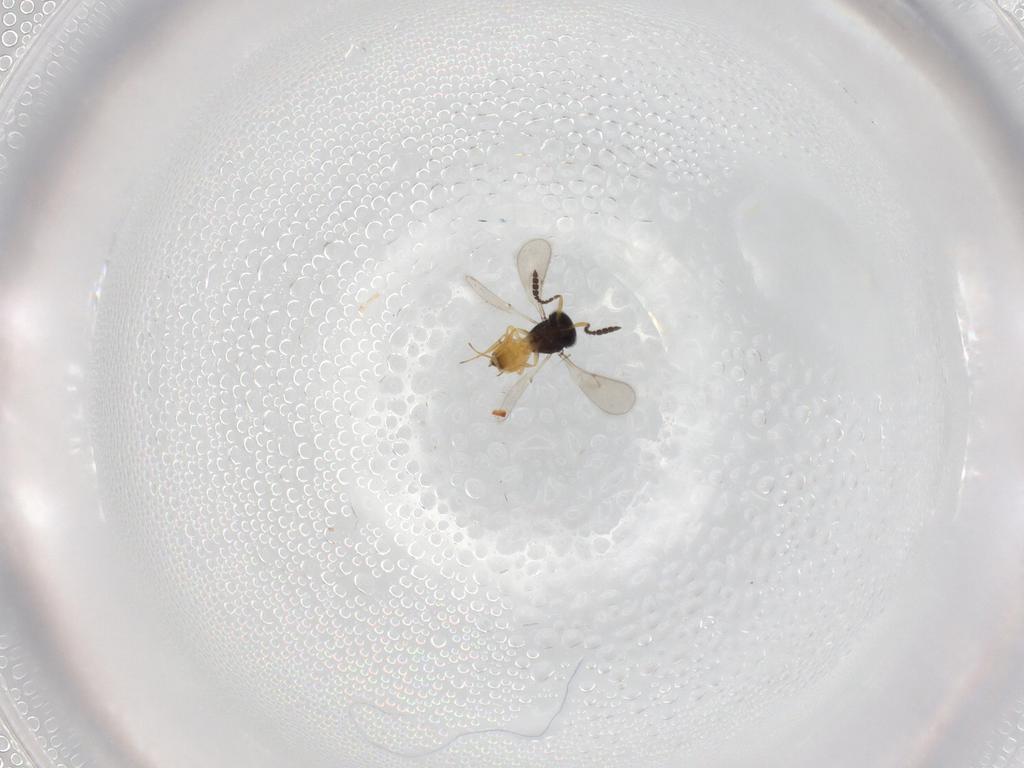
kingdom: Animalia
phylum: Arthropoda
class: Insecta
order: Hymenoptera
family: Scelionidae
